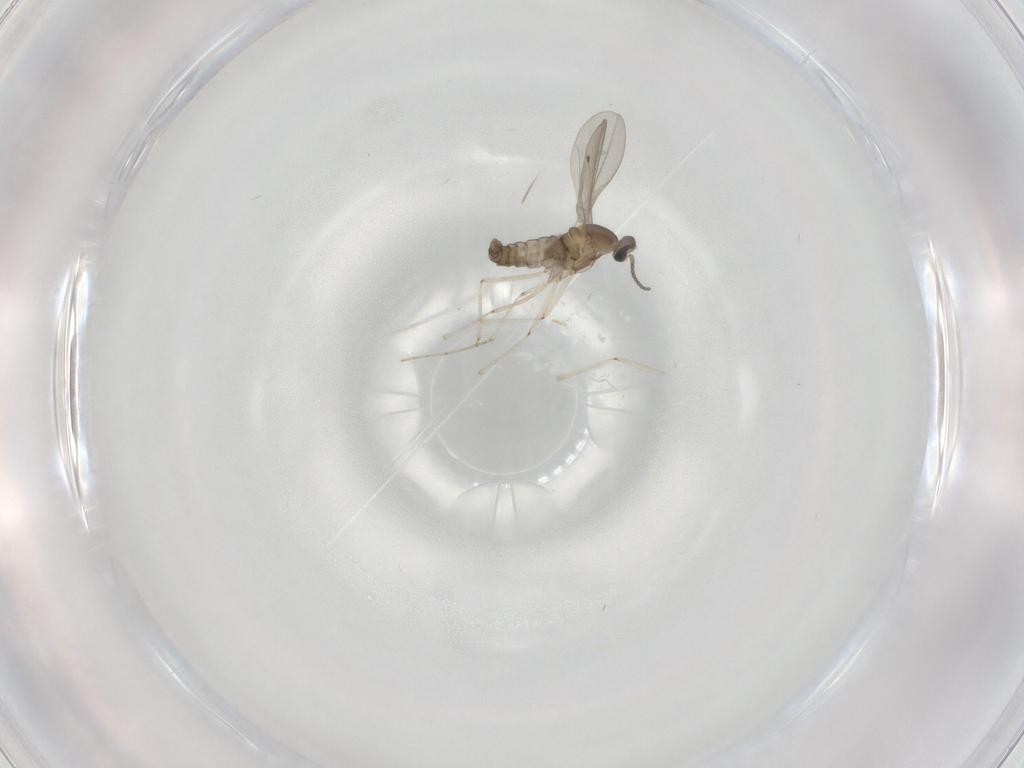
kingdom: Animalia
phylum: Arthropoda
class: Insecta
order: Diptera
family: Cecidomyiidae
